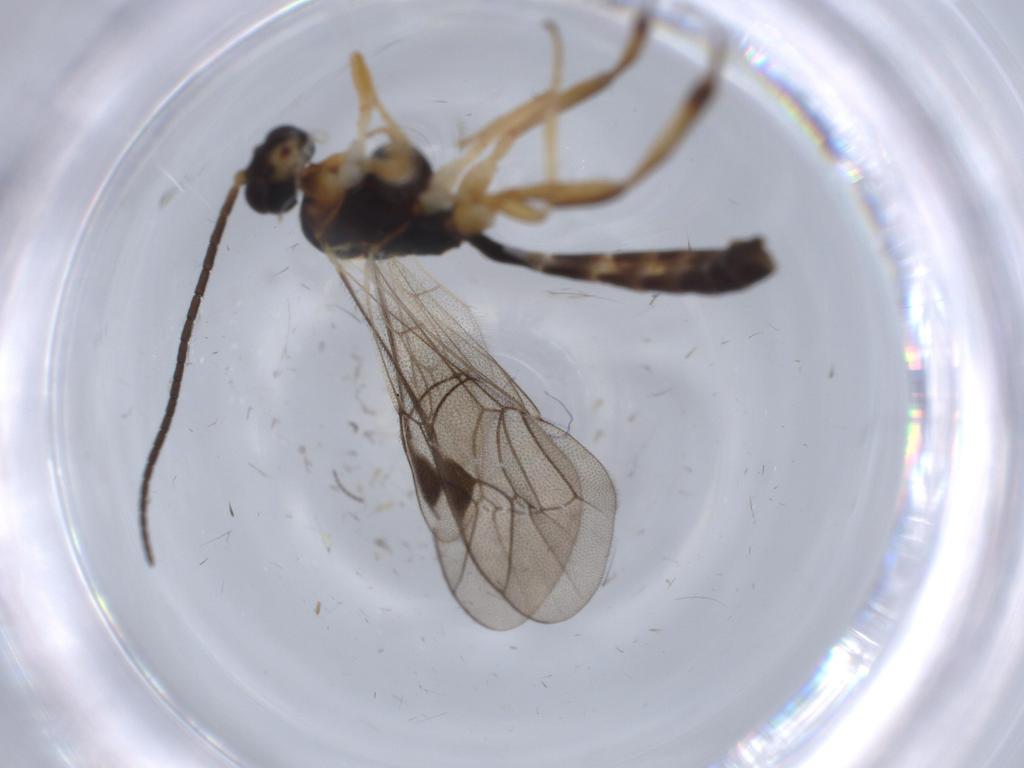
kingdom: Animalia
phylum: Arthropoda
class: Insecta
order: Hymenoptera
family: Ichneumonidae
